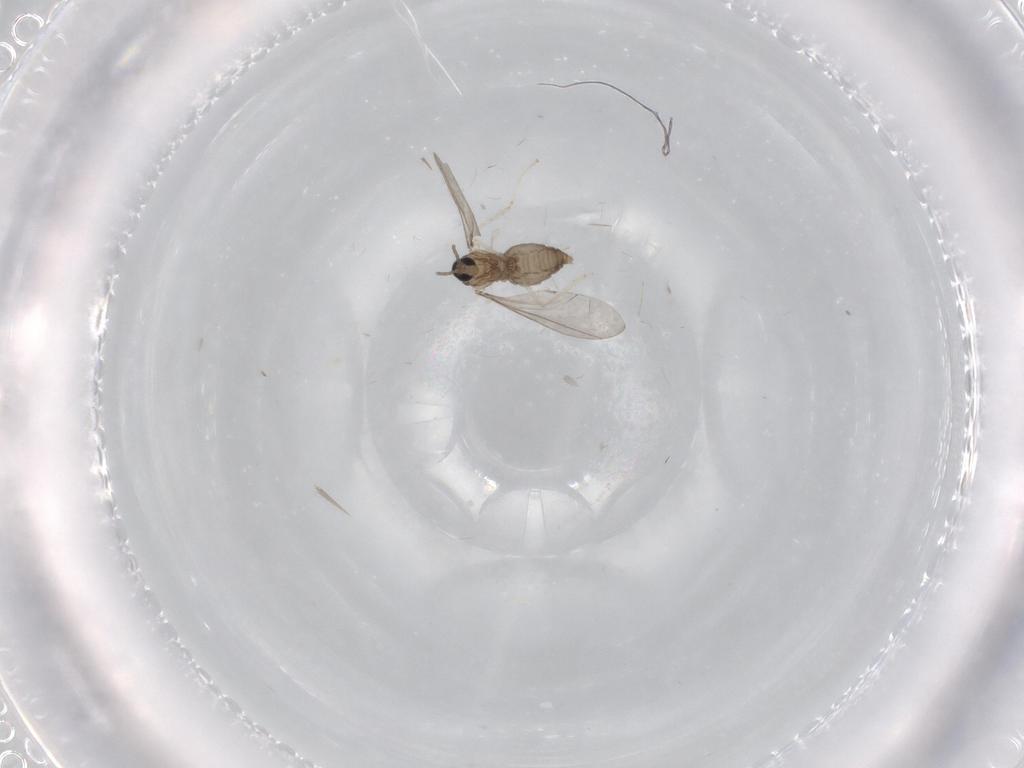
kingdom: Animalia
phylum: Arthropoda
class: Insecta
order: Diptera
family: Cecidomyiidae
